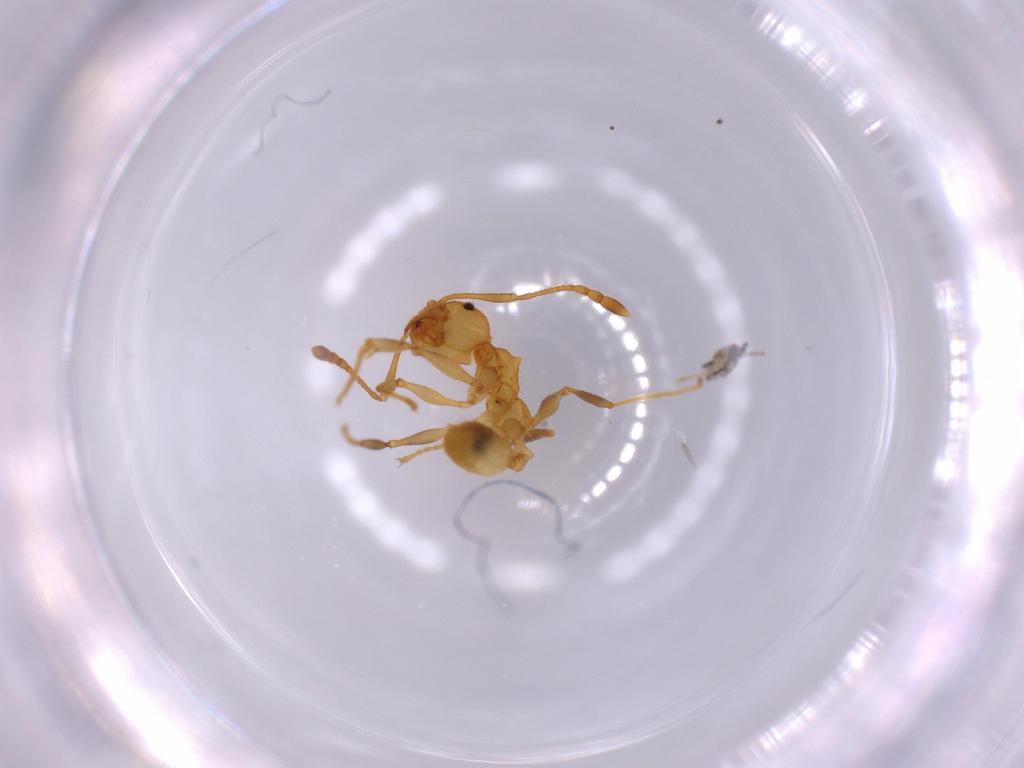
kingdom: Animalia
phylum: Arthropoda
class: Insecta
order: Hymenoptera
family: Formicidae
